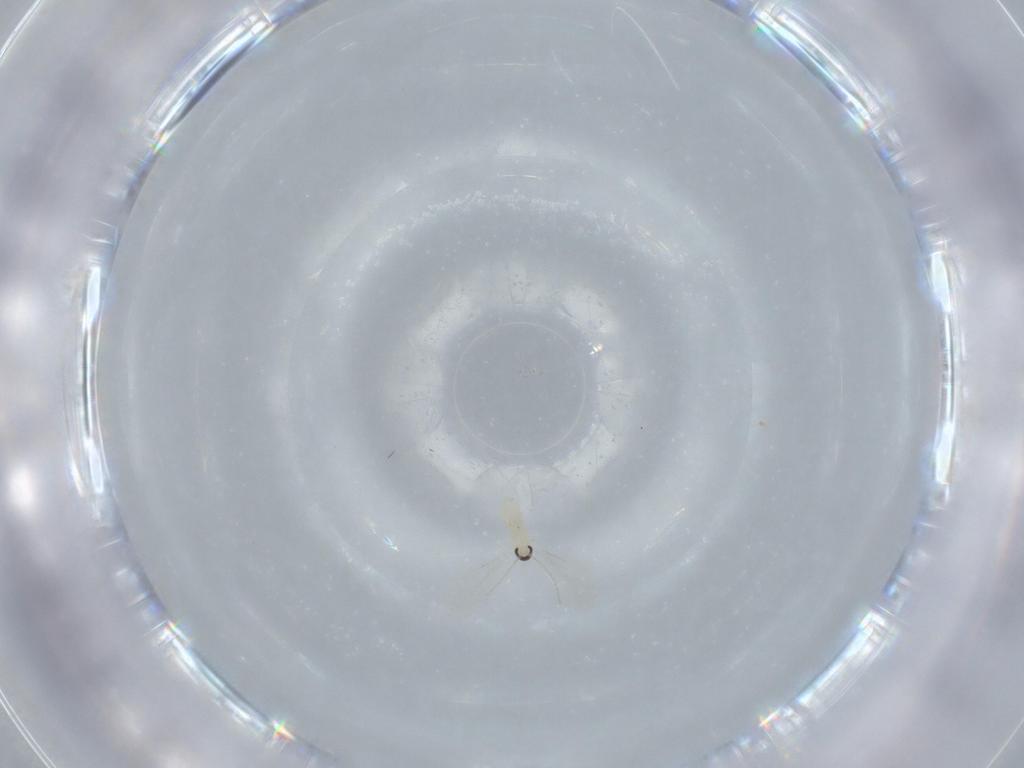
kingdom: Animalia
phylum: Arthropoda
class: Insecta
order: Diptera
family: Cecidomyiidae
